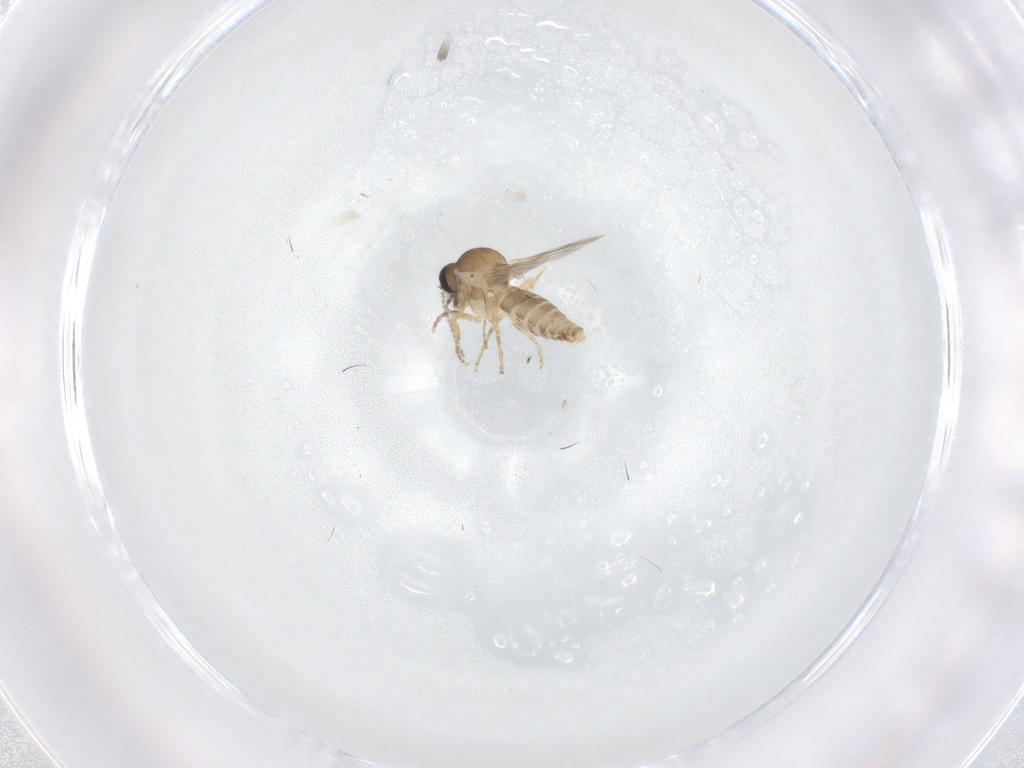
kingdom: Animalia
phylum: Arthropoda
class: Insecta
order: Diptera
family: Ceratopogonidae
